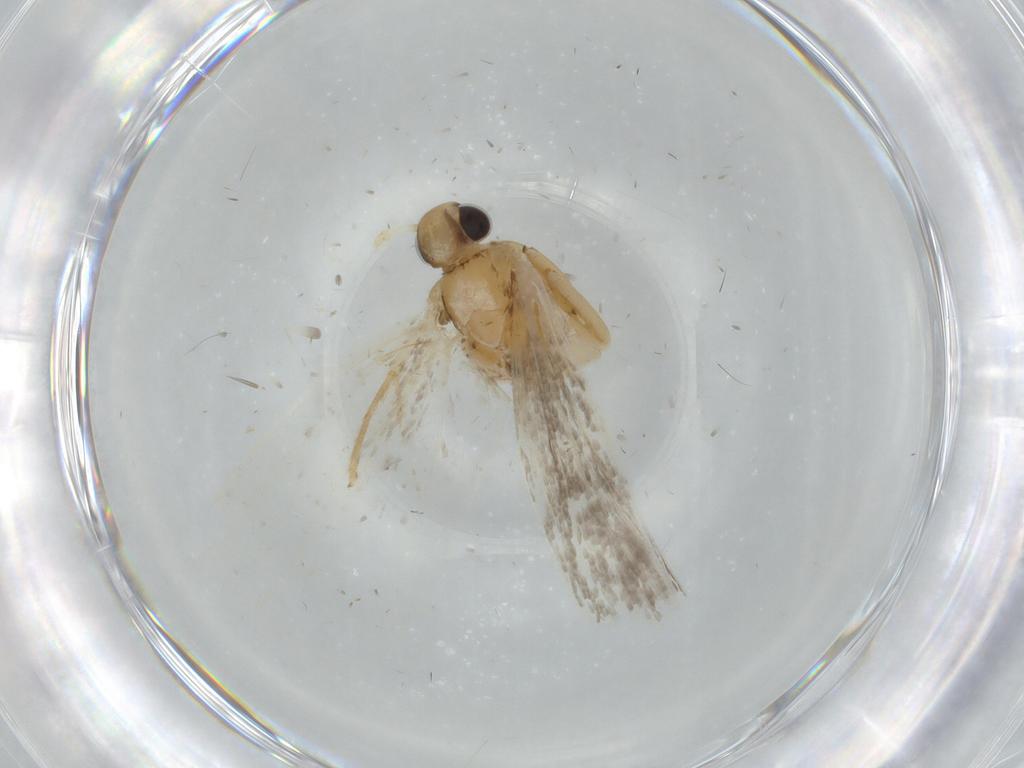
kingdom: Animalia
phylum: Arthropoda
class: Insecta
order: Lepidoptera
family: Gelechiidae
